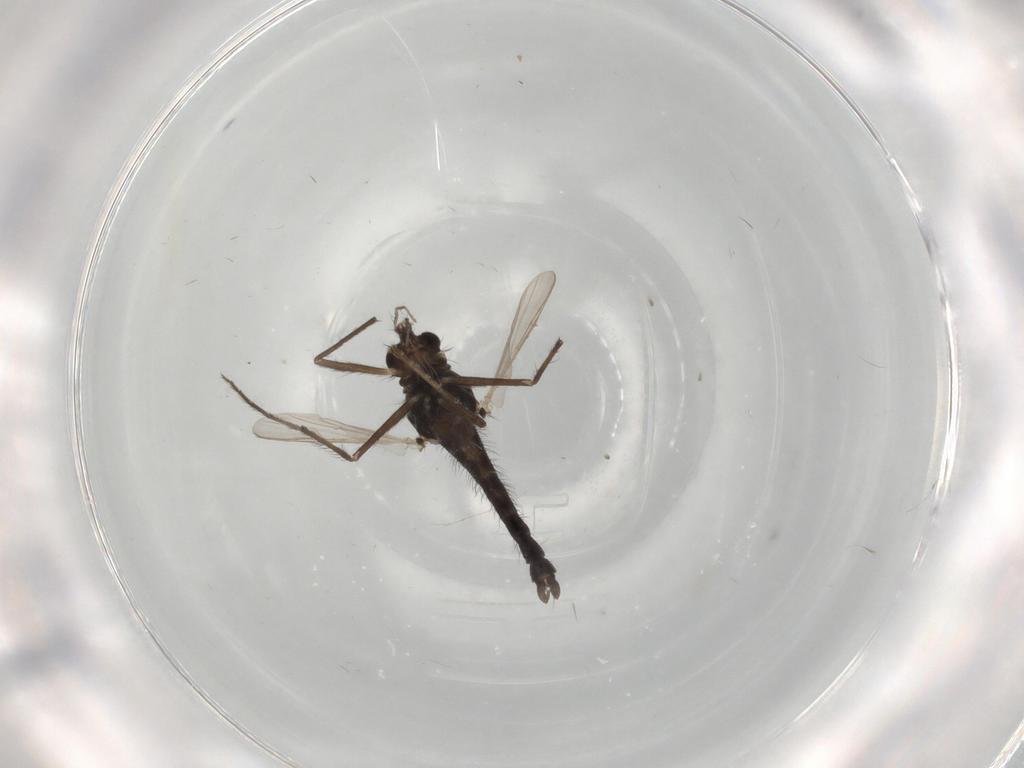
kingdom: Animalia
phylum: Arthropoda
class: Insecta
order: Diptera
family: Chironomidae
